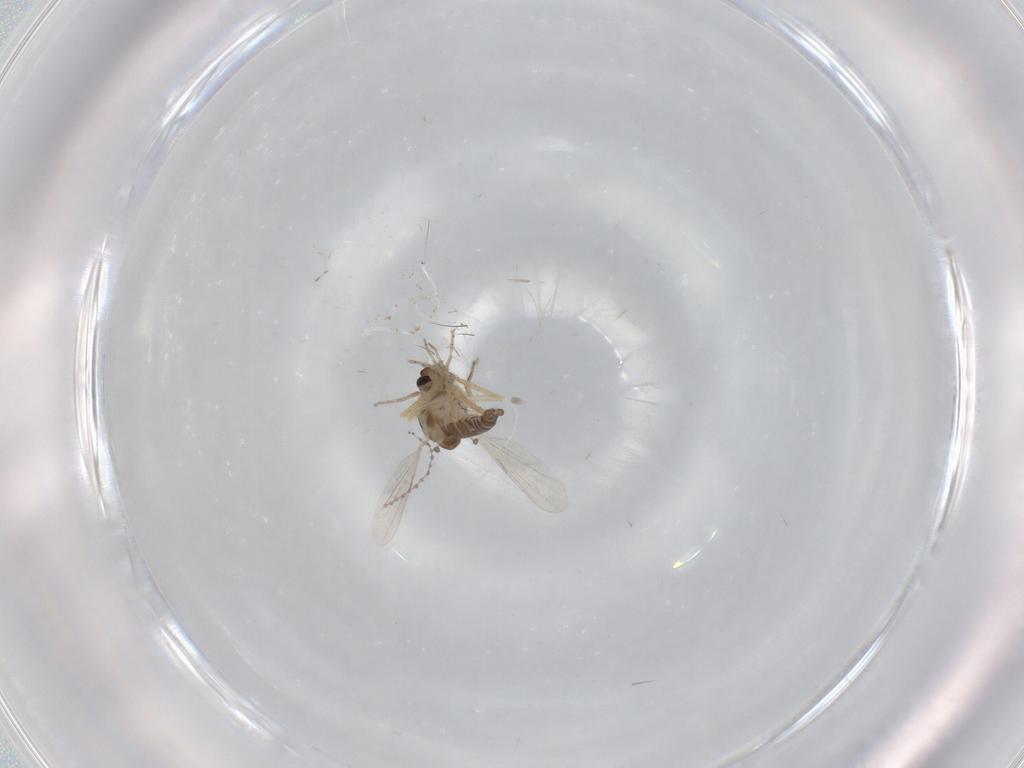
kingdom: Animalia
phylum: Arthropoda
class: Insecta
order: Diptera
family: Ceratopogonidae
